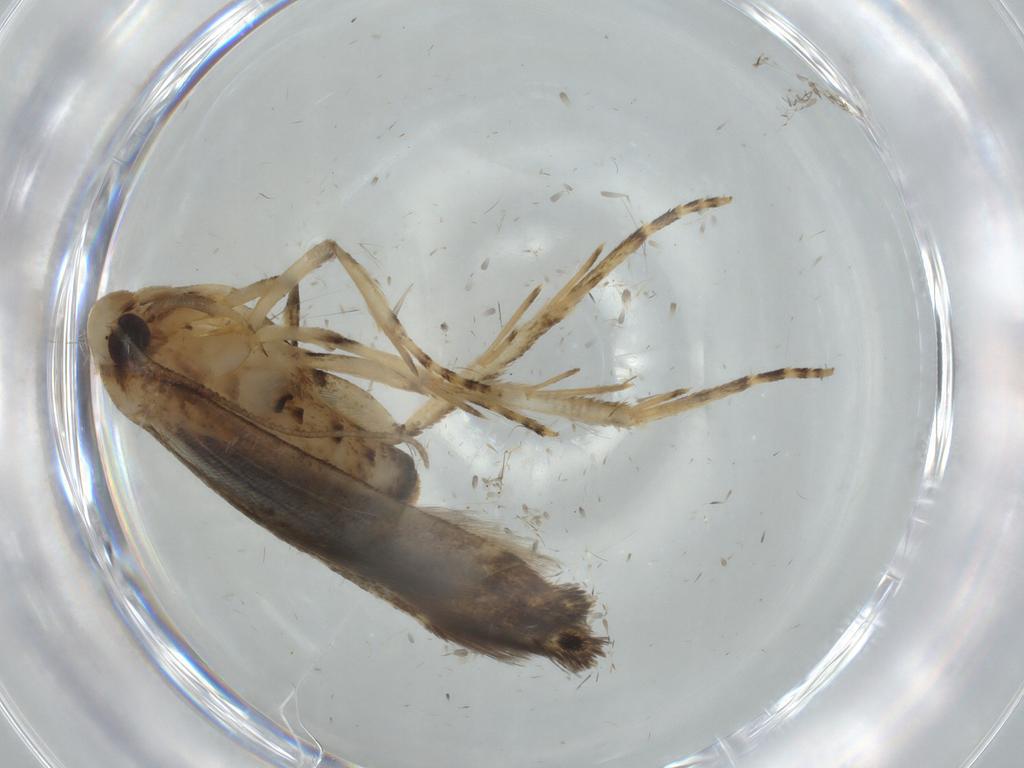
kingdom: Animalia
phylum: Arthropoda
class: Insecta
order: Lepidoptera
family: Cosmopterigidae
